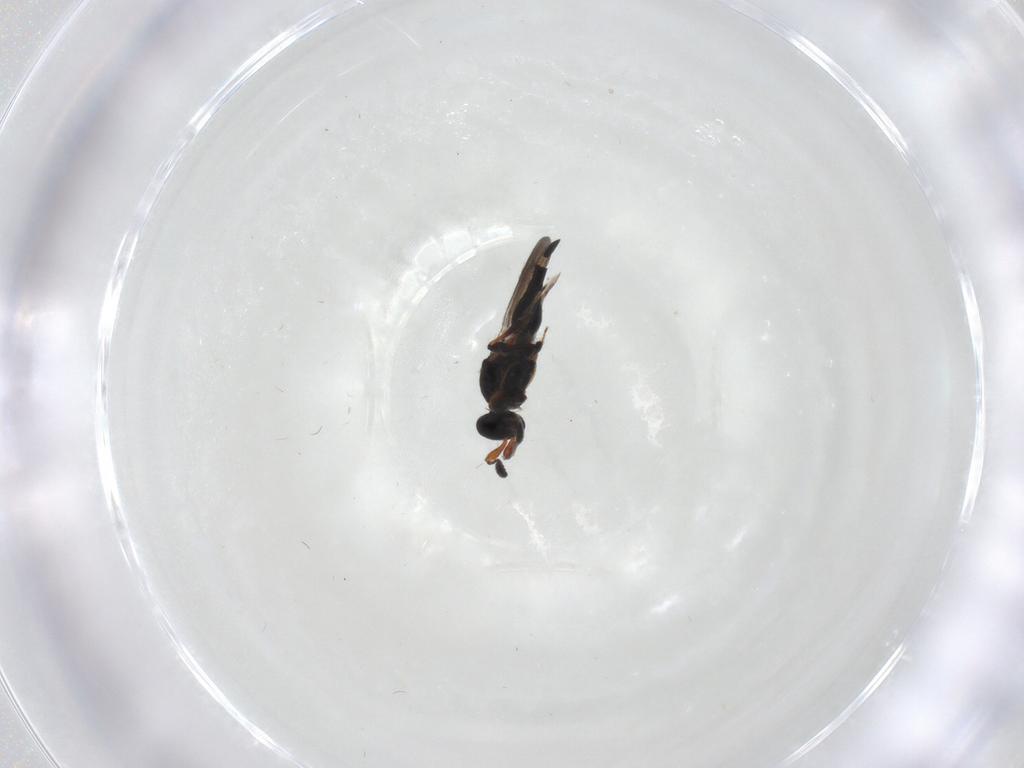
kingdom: Animalia
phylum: Arthropoda
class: Insecta
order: Hymenoptera
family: Platygastridae
